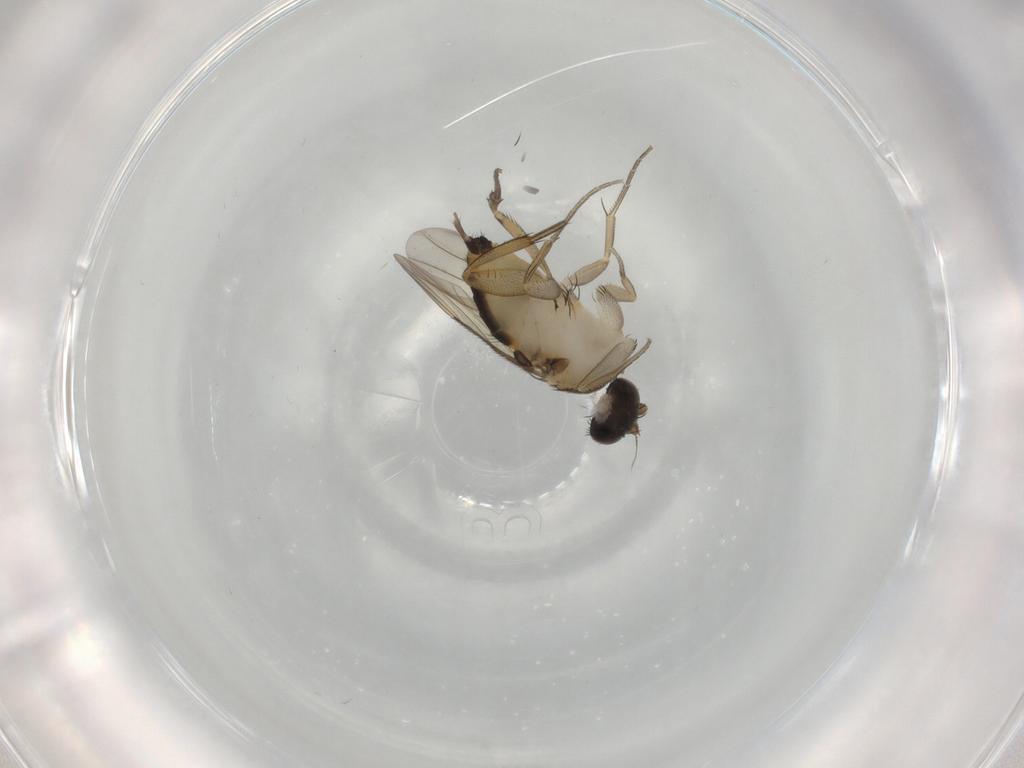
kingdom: Animalia
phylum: Arthropoda
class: Insecta
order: Diptera
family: Phoridae
